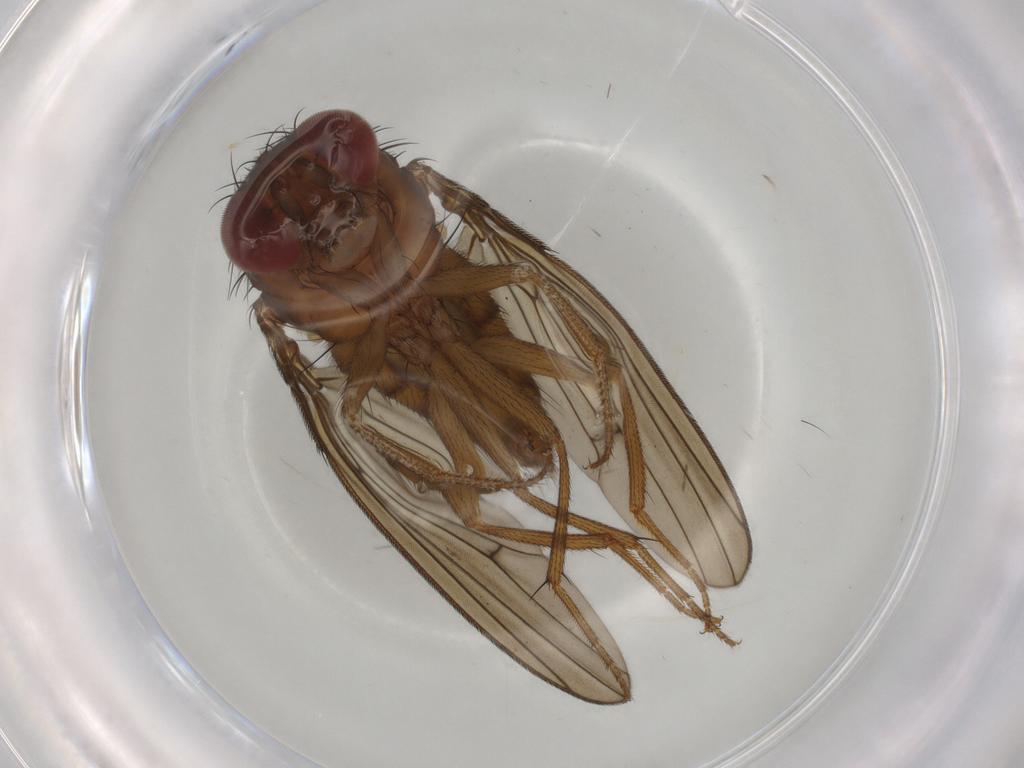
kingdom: Animalia
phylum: Arthropoda
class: Insecta
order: Diptera
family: Drosophilidae
